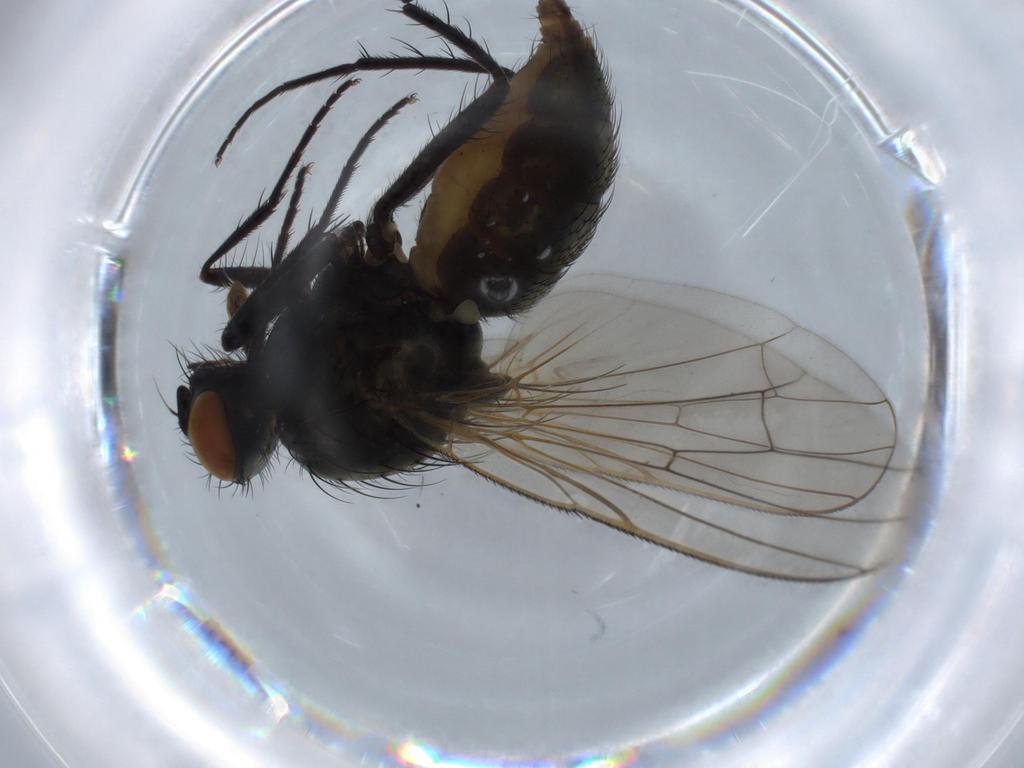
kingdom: Animalia
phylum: Arthropoda
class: Insecta
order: Diptera
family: Anthomyiidae
